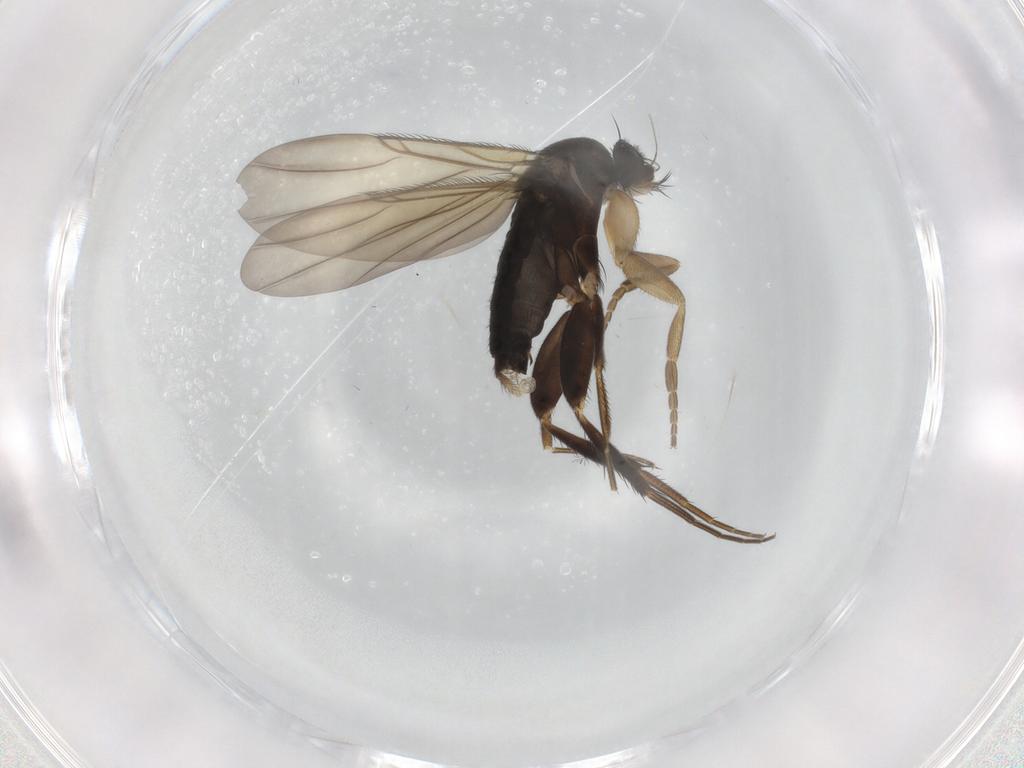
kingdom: Animalia
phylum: Arthropoda
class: Insecta
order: Diptera
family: Phoridae
